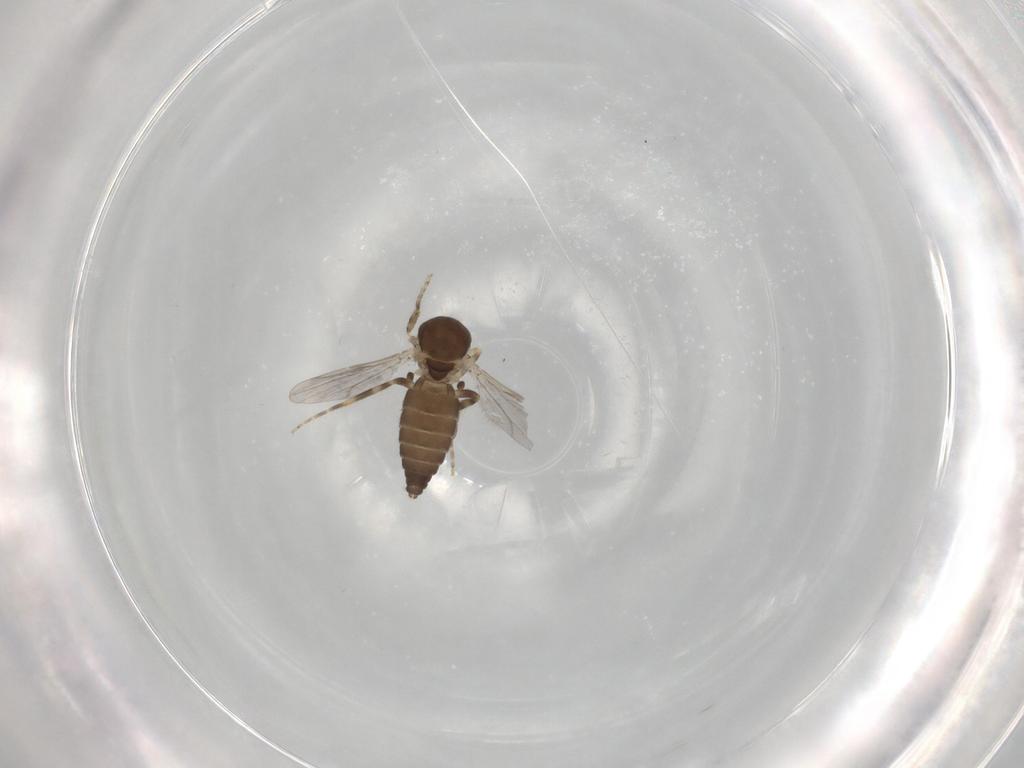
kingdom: Animalia
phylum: Arthropoda
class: Insecta
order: Diptera
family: Ceratopogonidae
